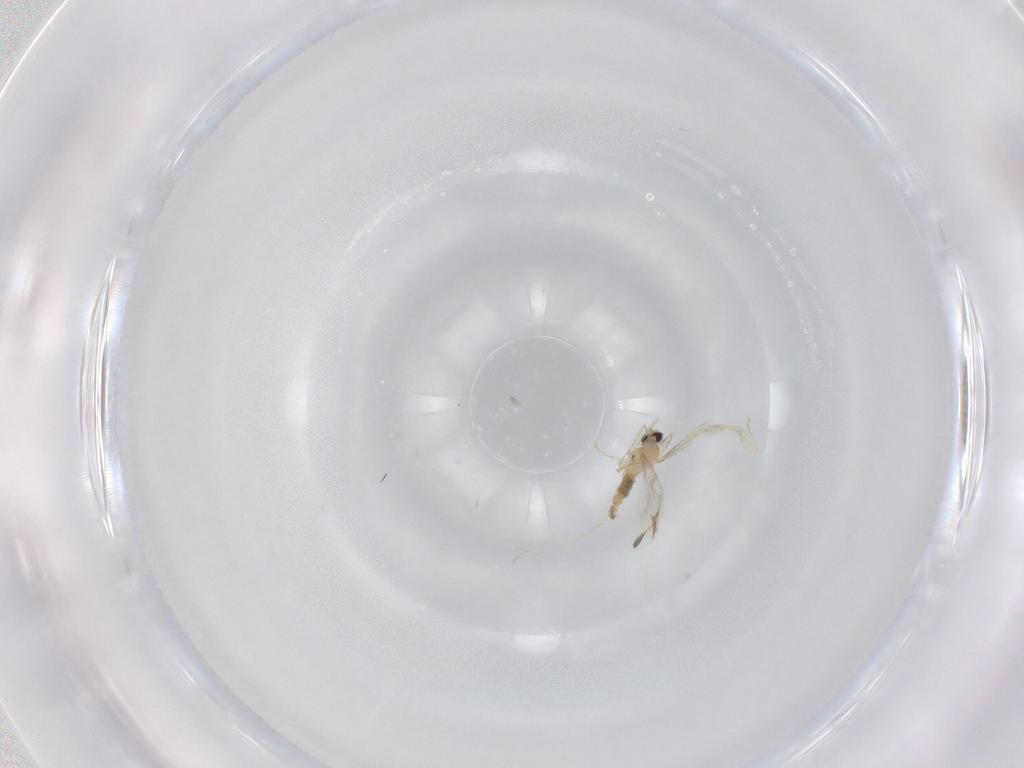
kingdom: Animalia
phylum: Arthropoda
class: Insecta
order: Diptera
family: Cecidomyiidae
